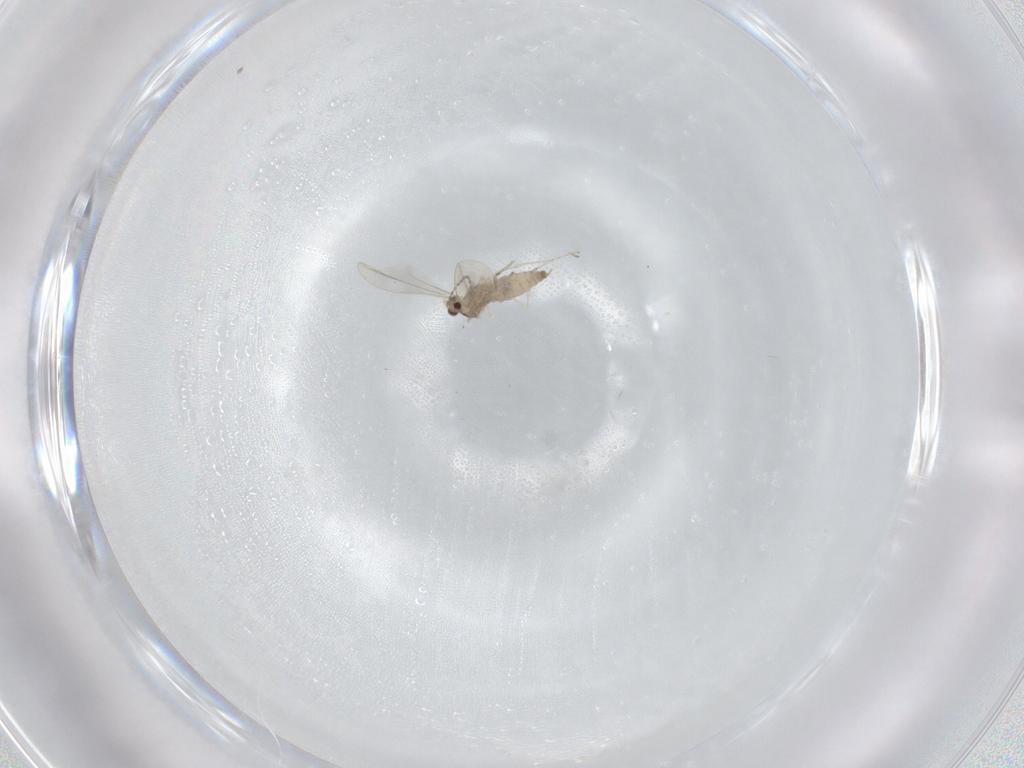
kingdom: Animalia
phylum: Arthropoda
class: Insecta
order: Diptera
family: Cecidomyiidae
